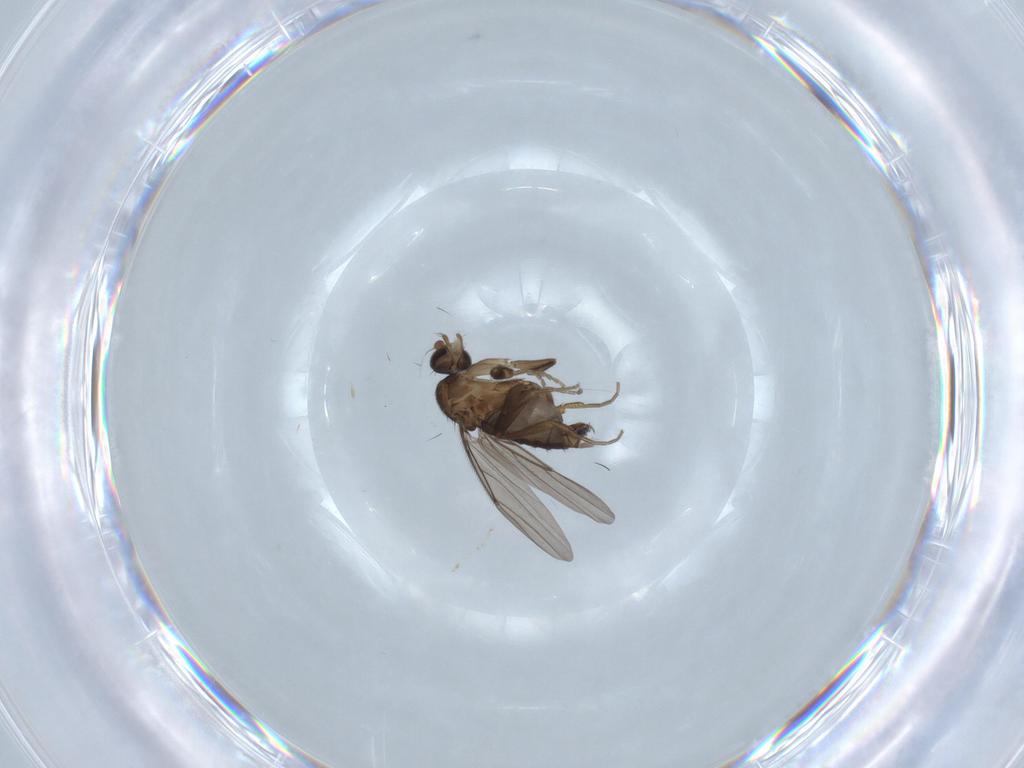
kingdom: Animalia
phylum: Arthropoda
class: Insecta
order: Diptera
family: Cecidomyiidae
